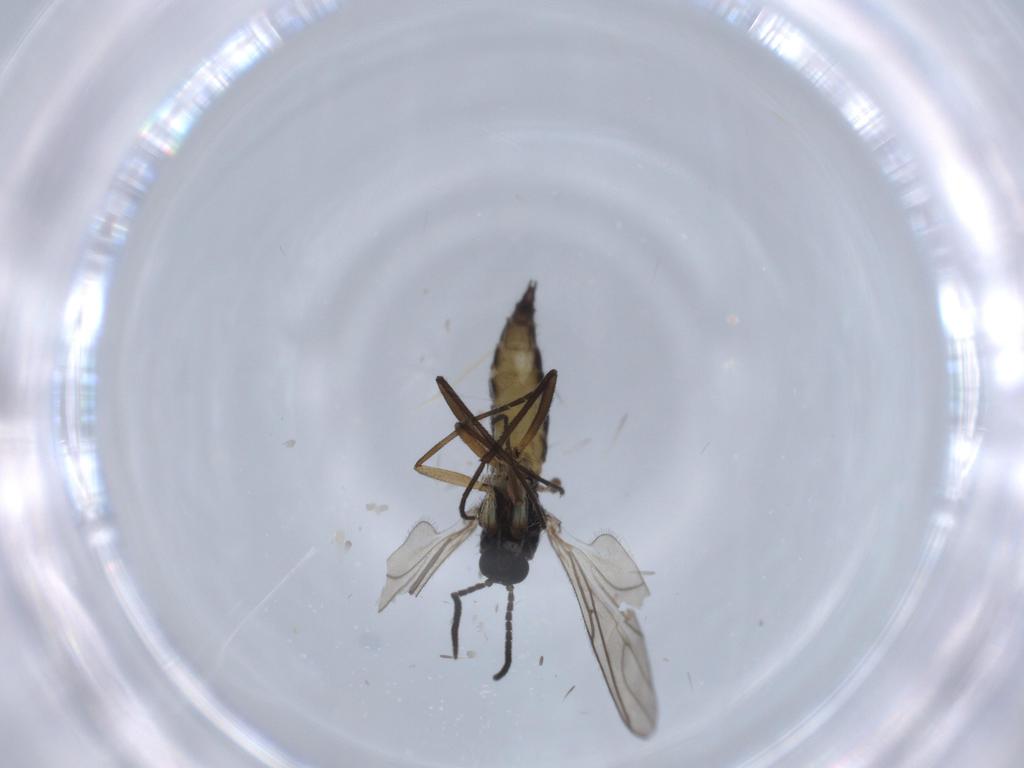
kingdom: Animalia
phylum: Arthropoda
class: Insecta
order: Diptera
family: Sciaridae
